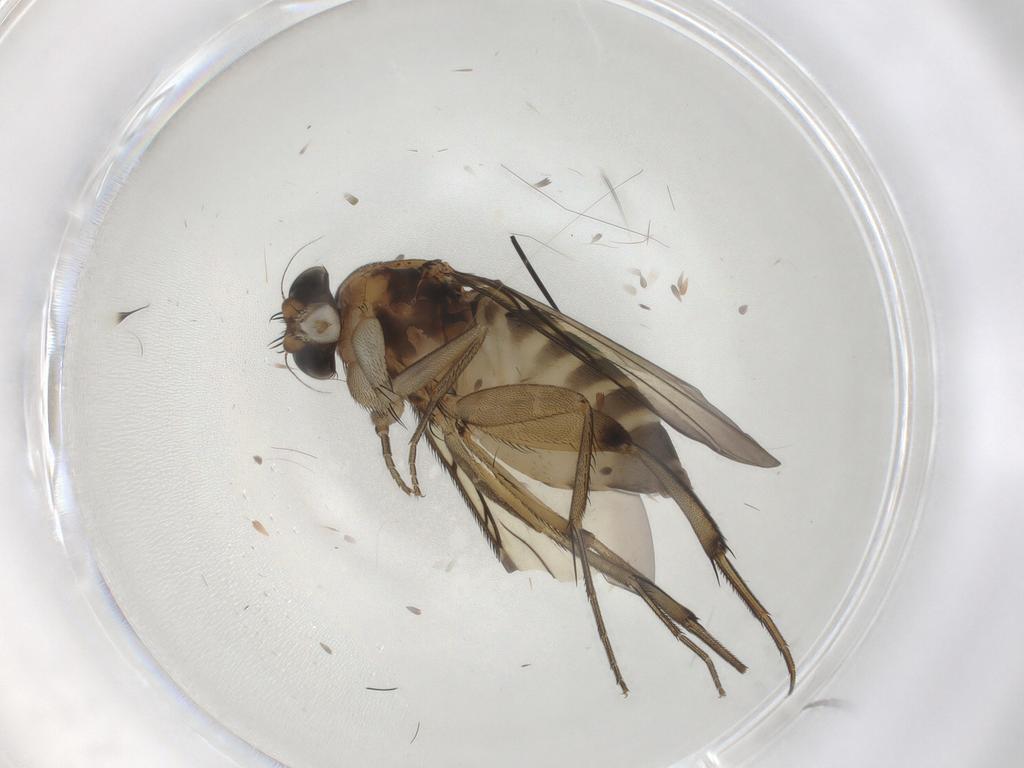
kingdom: Animalia
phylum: Arthropoda
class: Insecta
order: Diptera
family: Phoridae
